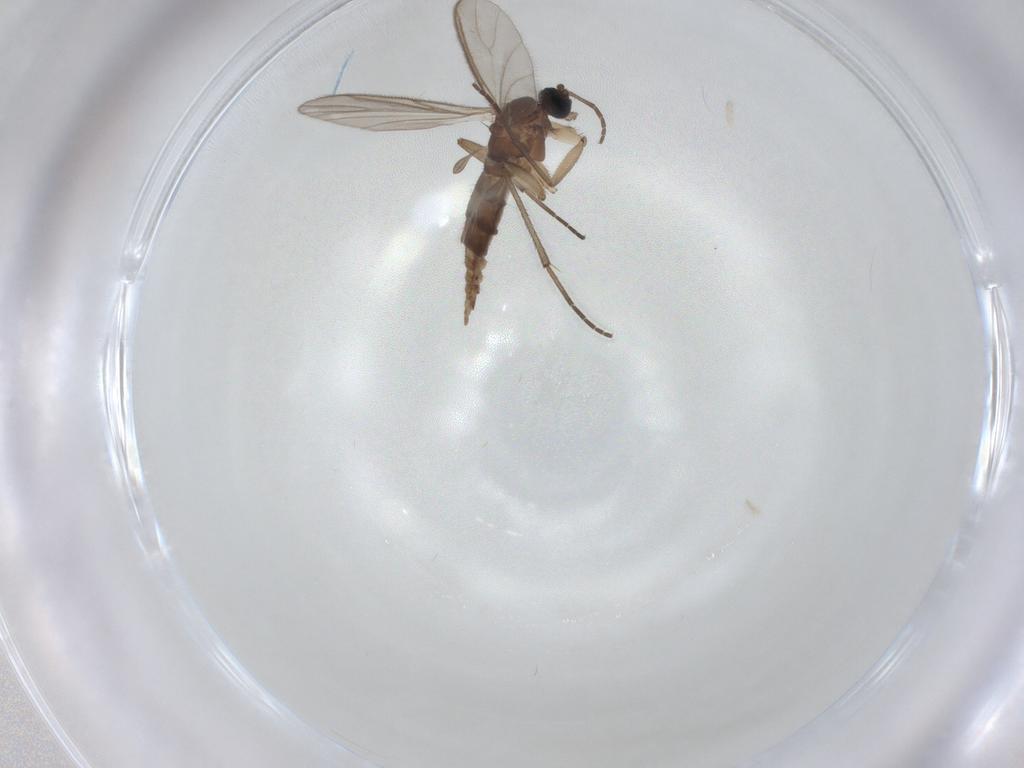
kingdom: Animalia
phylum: Arthropoda
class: Insecta
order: Diptera
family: Sciaridae
